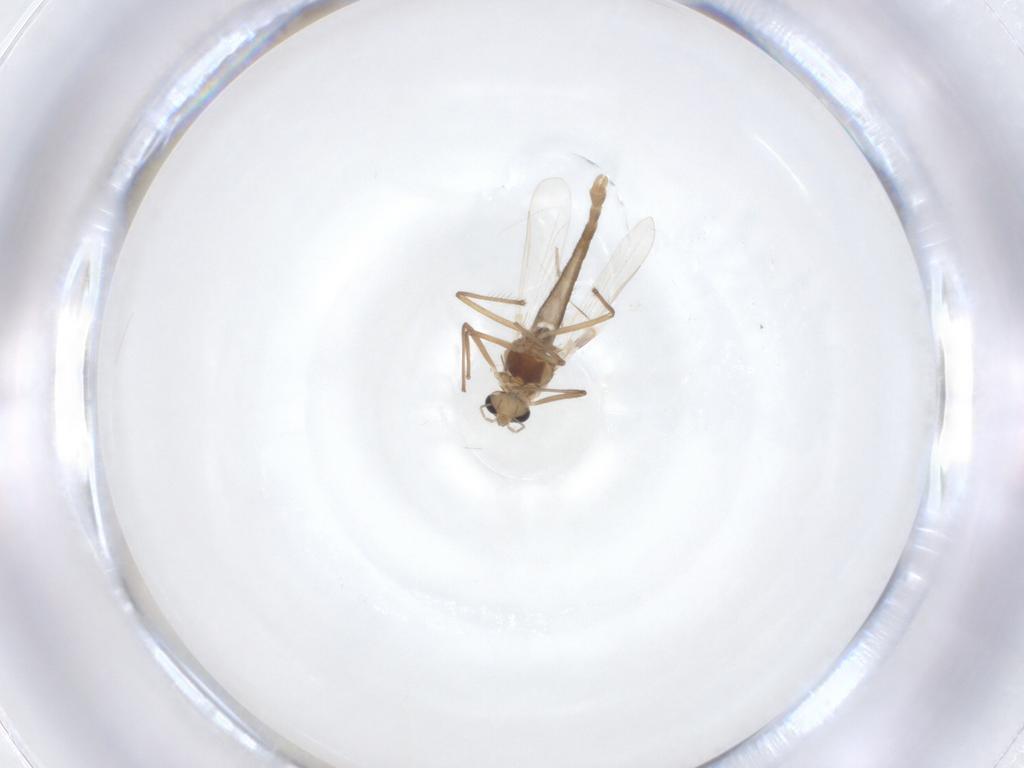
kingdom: Animalia
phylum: Arthropoda
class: Insecta
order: Diptera
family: Chironomidae
